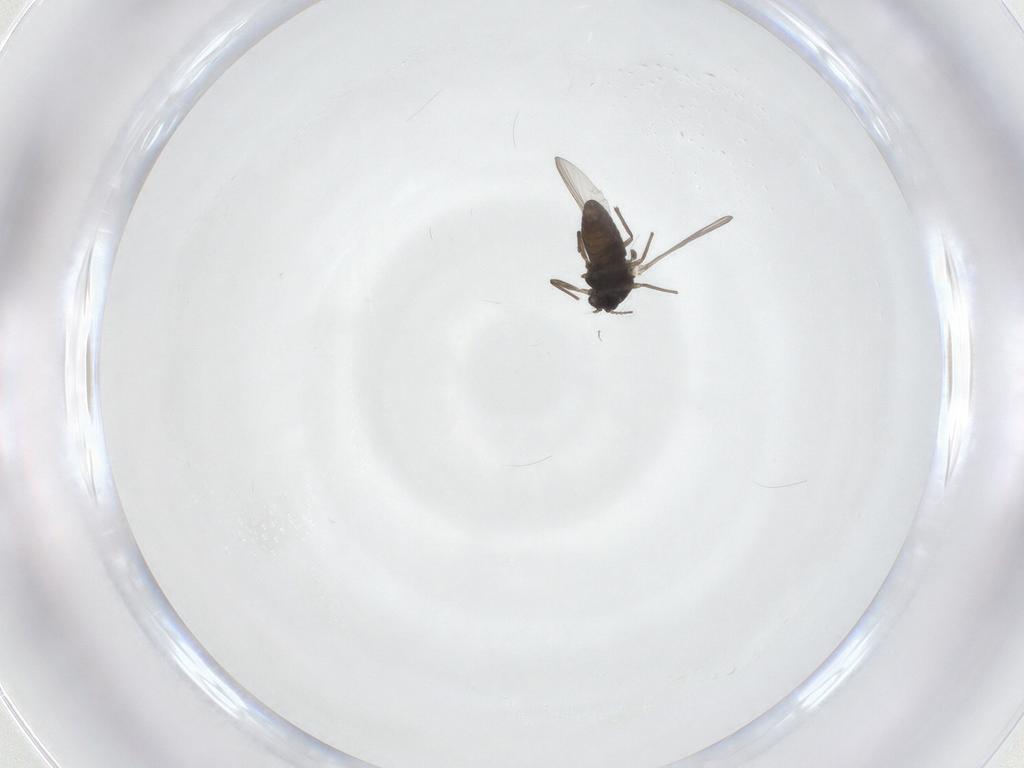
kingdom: Animalia
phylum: Arthropoda
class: Insecta
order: Diptera
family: Chironomidae
